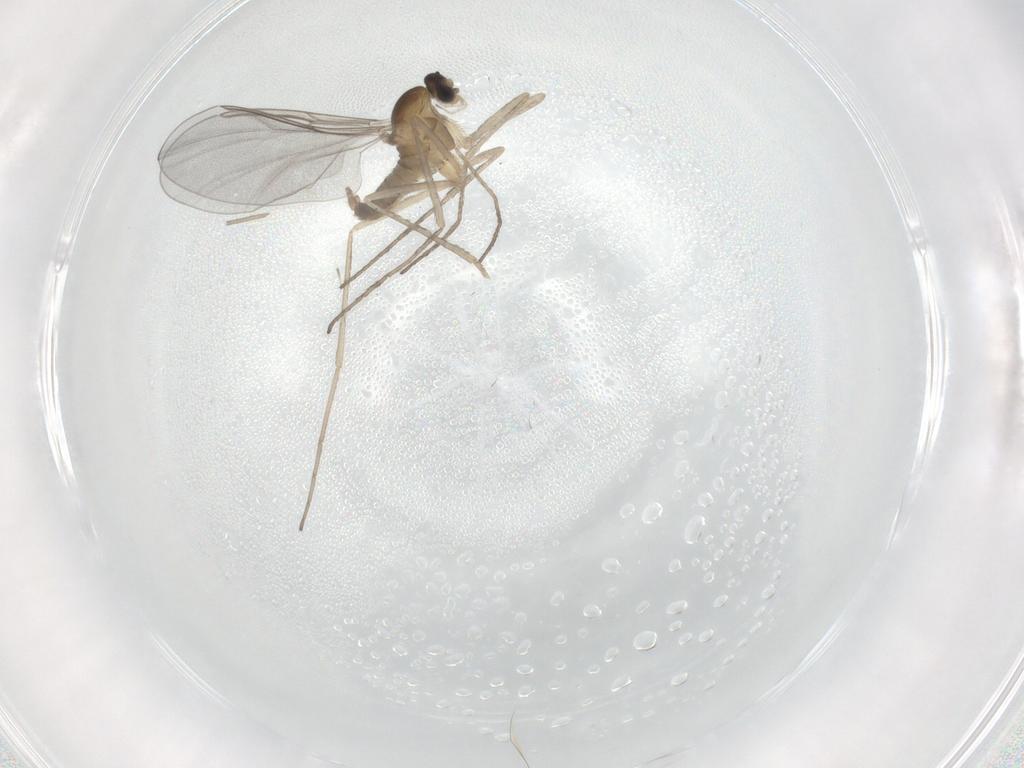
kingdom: Animalia
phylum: Arthropoda
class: Insecta
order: Diptera
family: Cecidomyiidae
